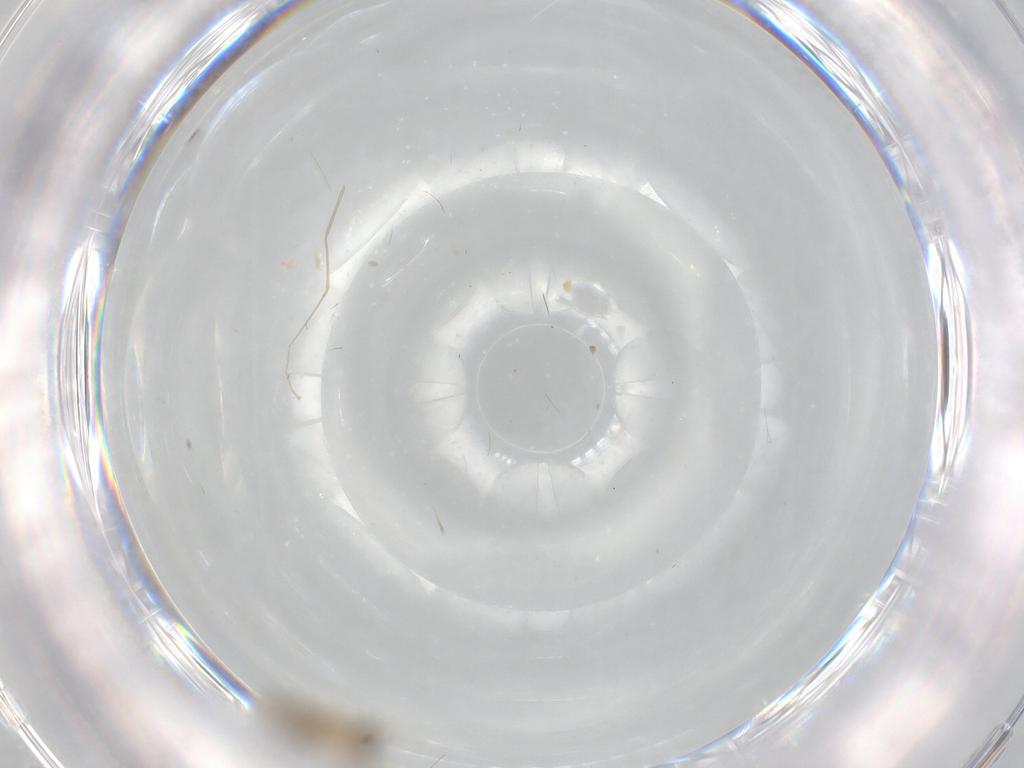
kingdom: Animalia
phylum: Arthropoda
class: Insecta
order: Diptera
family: Cecidomyiidae
